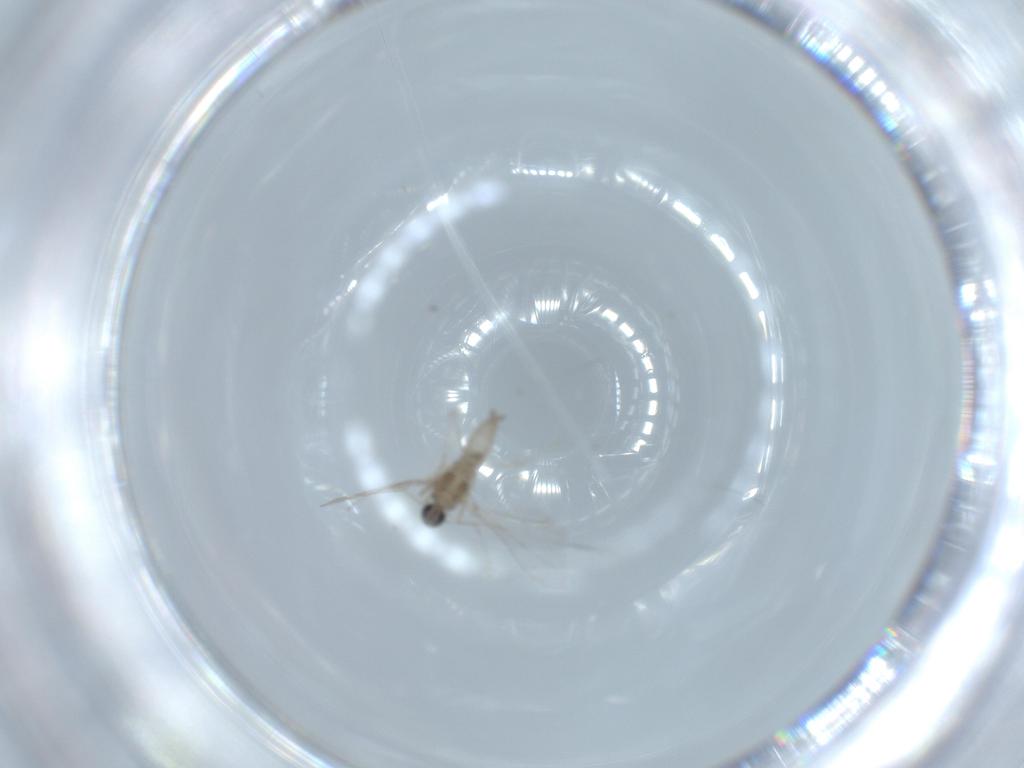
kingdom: Animalia
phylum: Arthropoda
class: Insecta
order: Diptera
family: Phoridae
